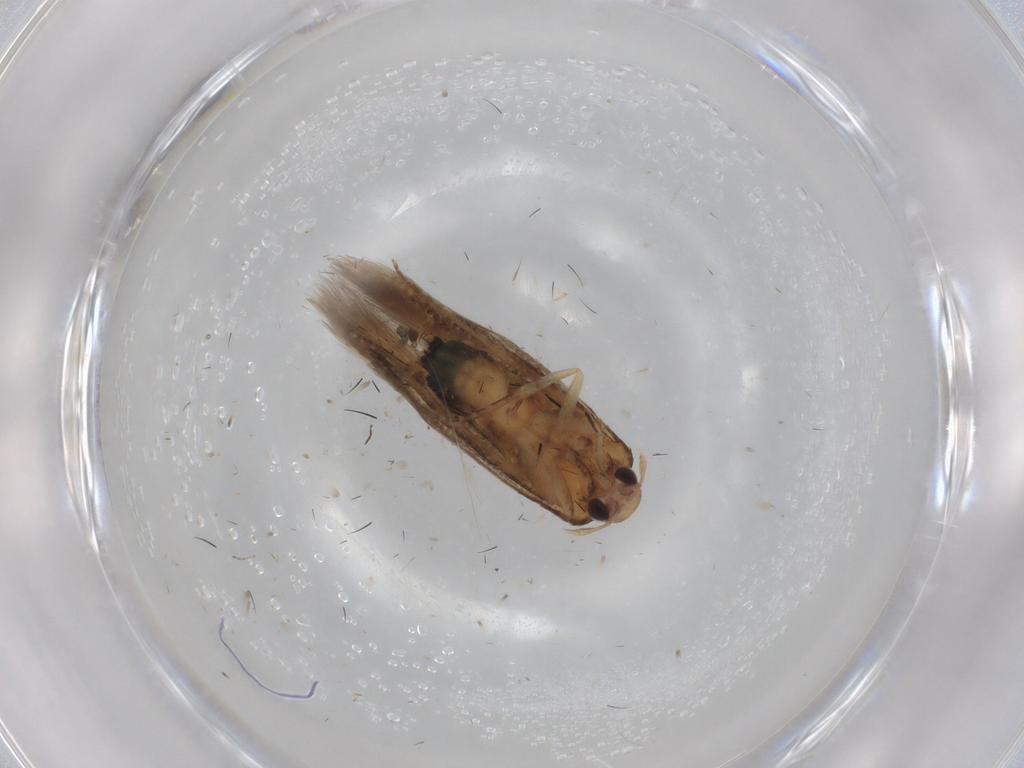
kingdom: Animalia
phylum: Arthropoda
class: Insecta
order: Lepidoptera
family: Cosmopterigidae
